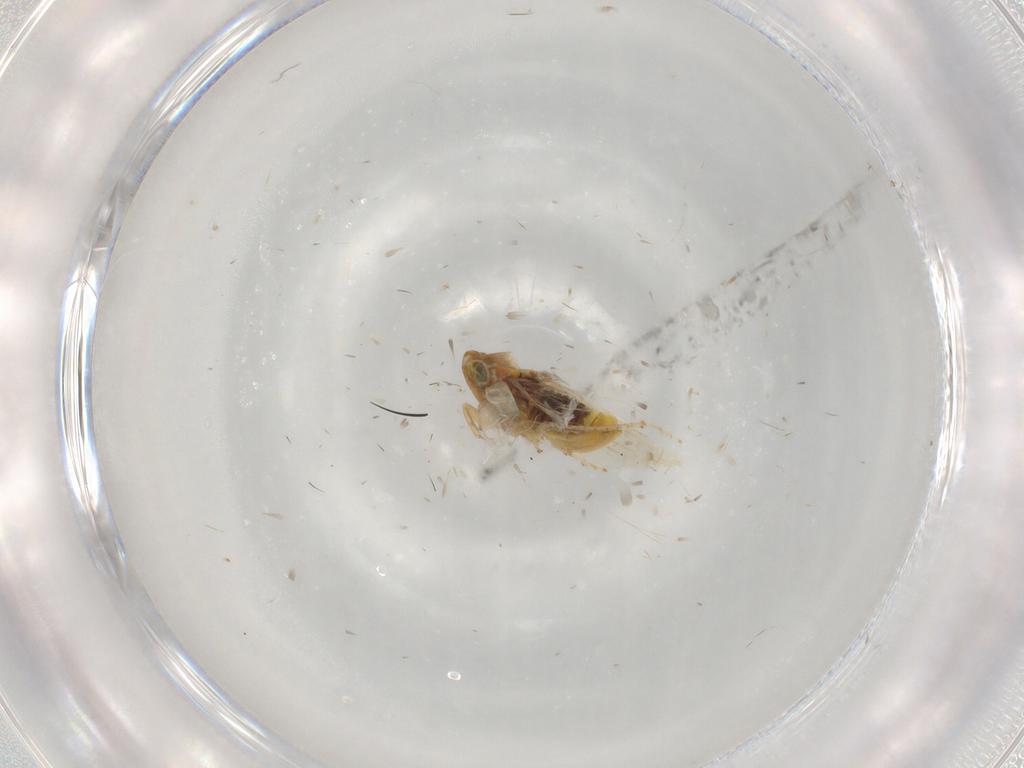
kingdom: Animalia
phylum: Arthropoda
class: Insecta
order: Hemiptera
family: Cicadellidae
